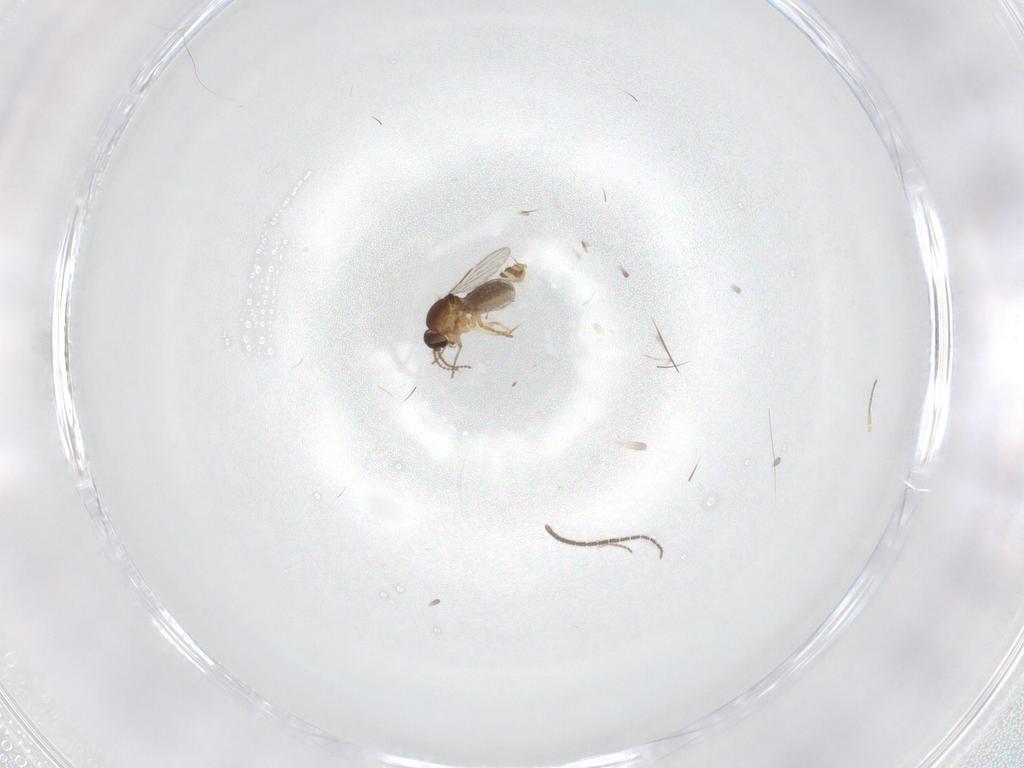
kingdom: Animalia
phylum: Arthropoda
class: Insecta
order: Diptera
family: Ceratopogonidae
